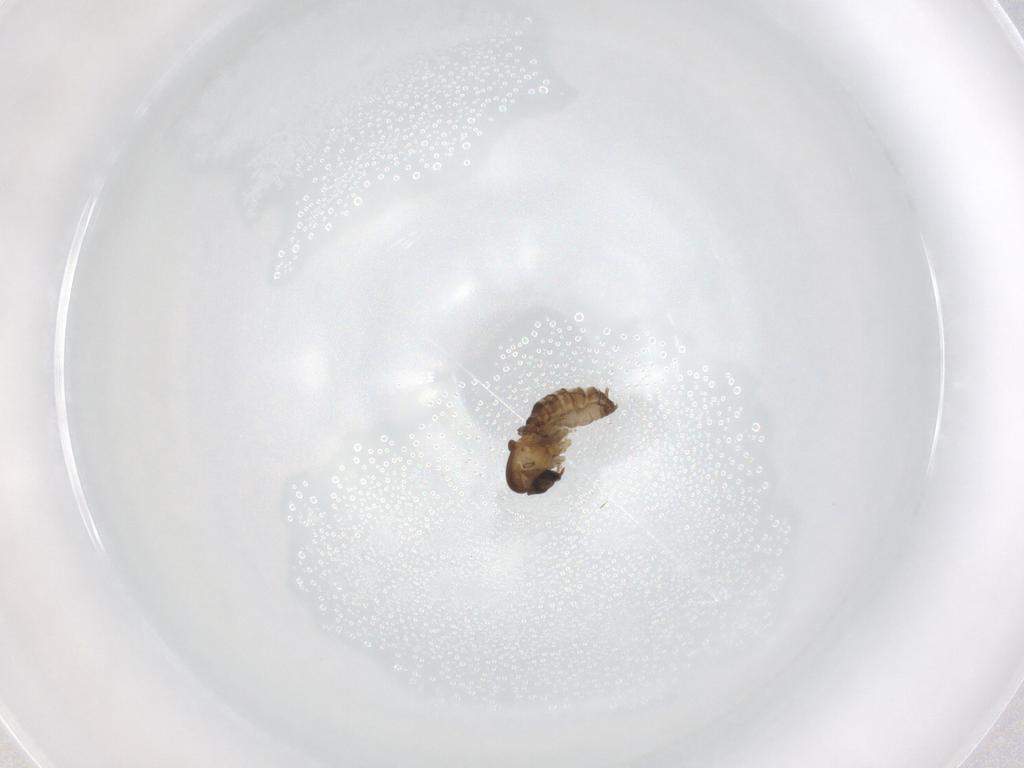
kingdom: Animalia
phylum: Arthropoda
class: Insecta
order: Diptera
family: Psychodidae
